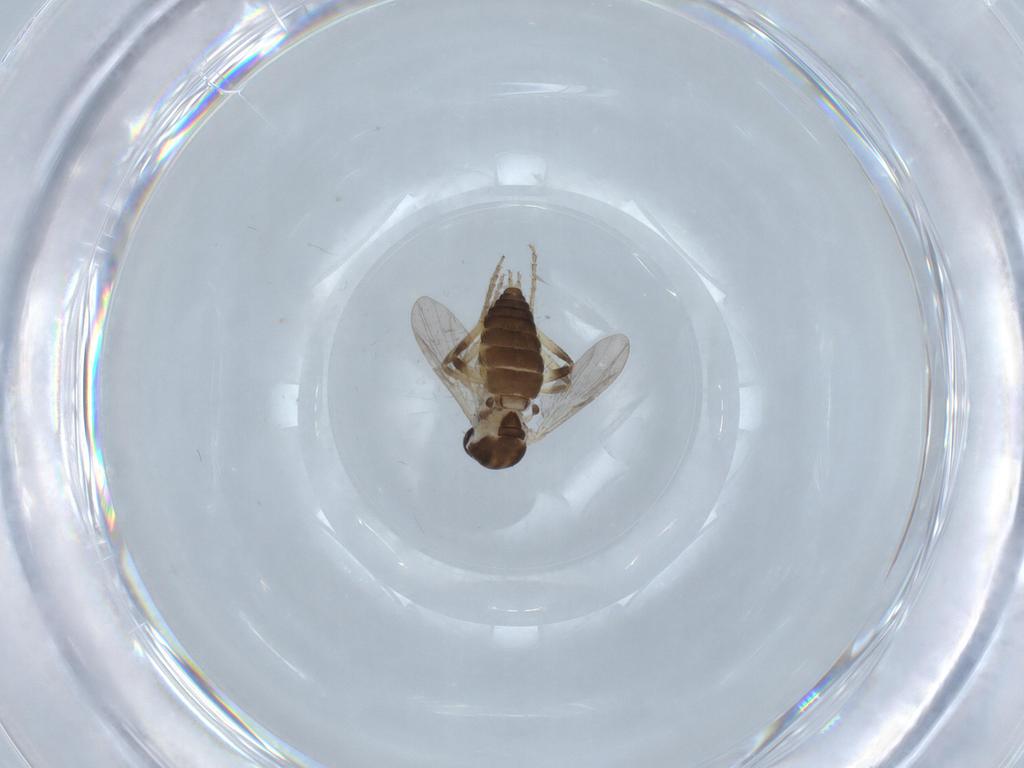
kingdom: Animalia
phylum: Arthropoda
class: Insecta
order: Diptera
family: Ceratopogonidae
